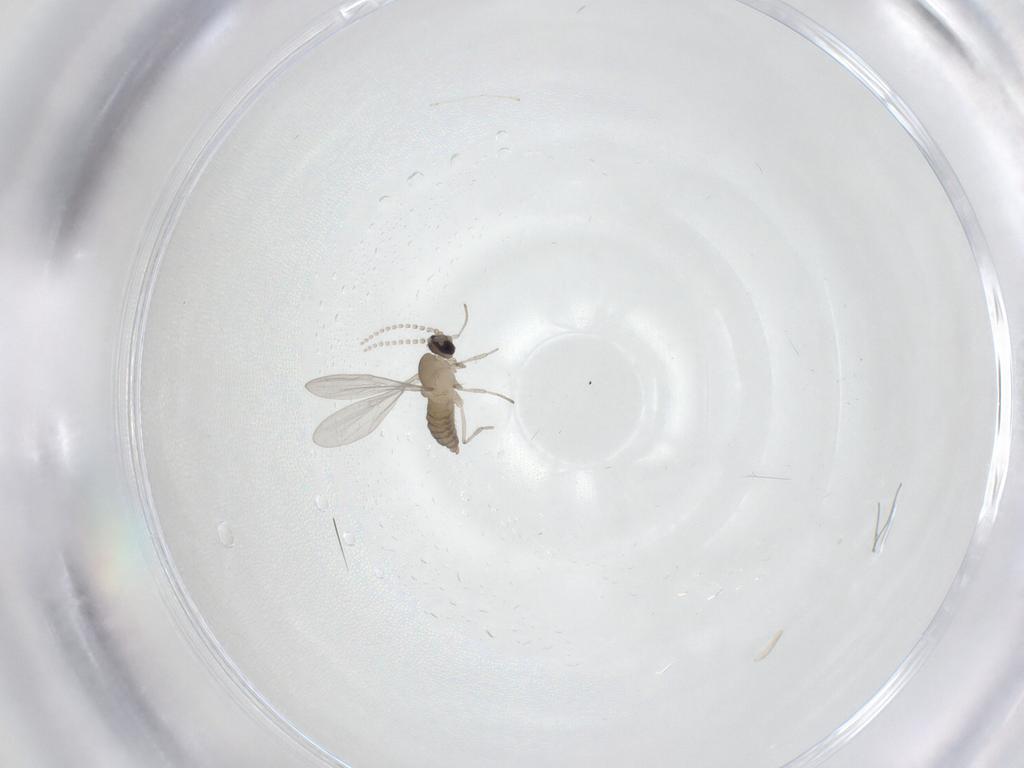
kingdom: Animalia
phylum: Arthropoda
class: Insecta
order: Diptera
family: Cecidomyiidae
